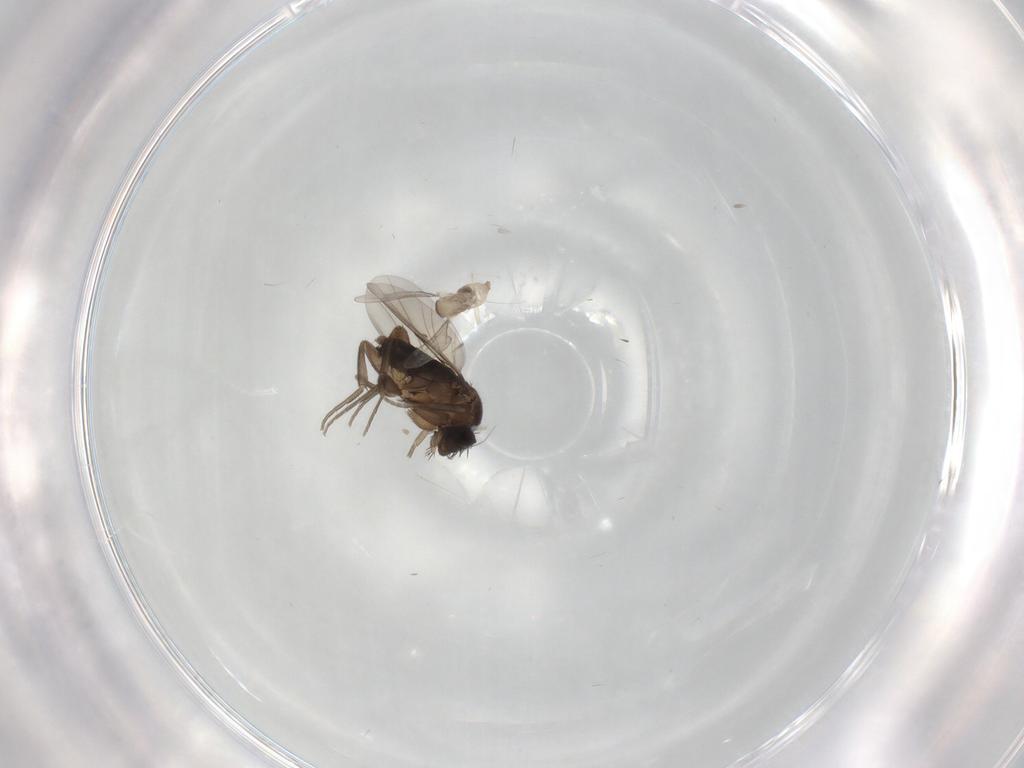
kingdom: Animalia
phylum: Arthropoda
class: Insecta
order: Diptera
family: Phoridae
